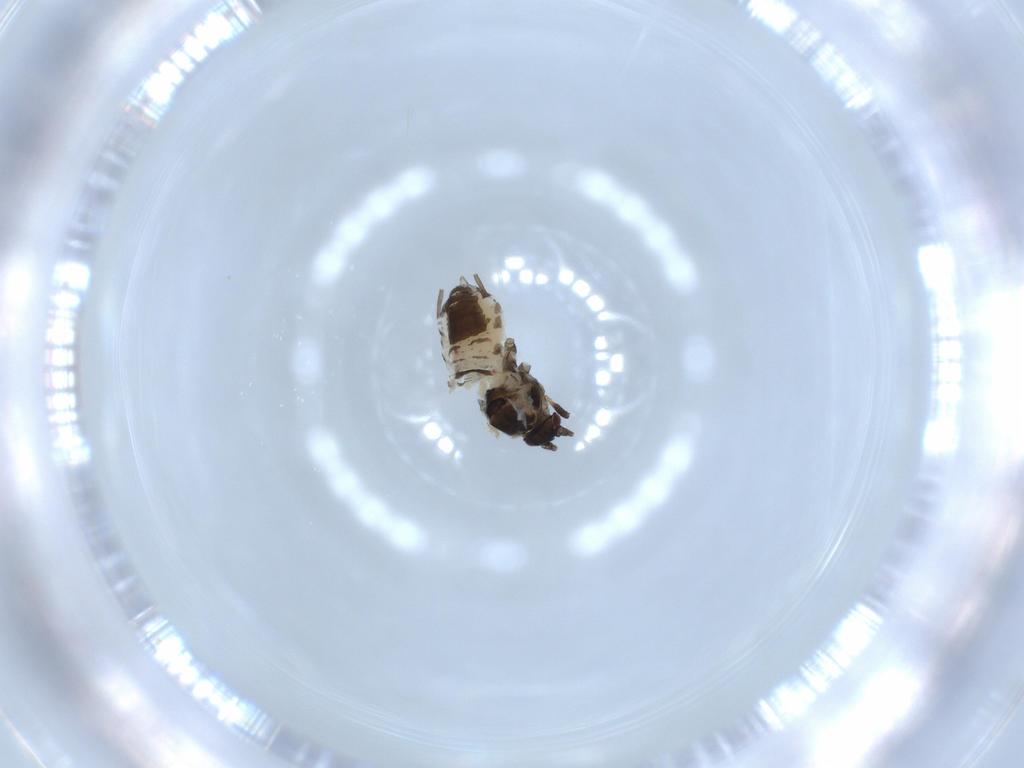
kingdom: Animalia
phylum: Arthropoda
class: Insecta
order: Hemiptera
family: Aphididae
